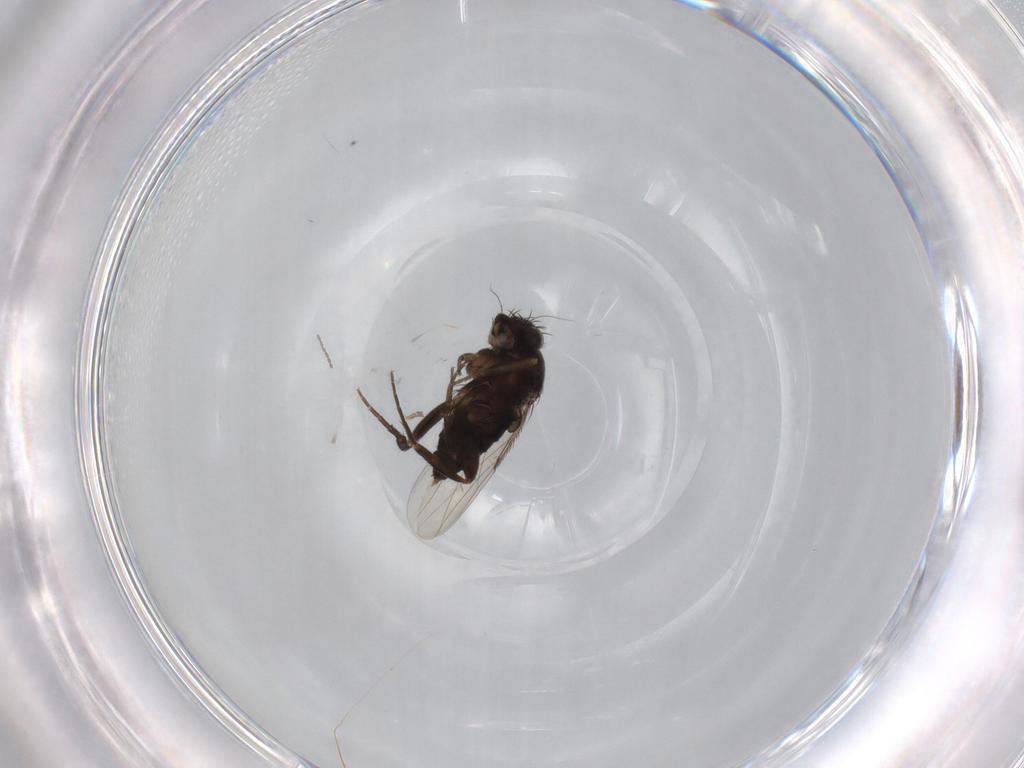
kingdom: Animalia
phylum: Arthropoda
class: Insecta
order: Diptera
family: Phoridae
